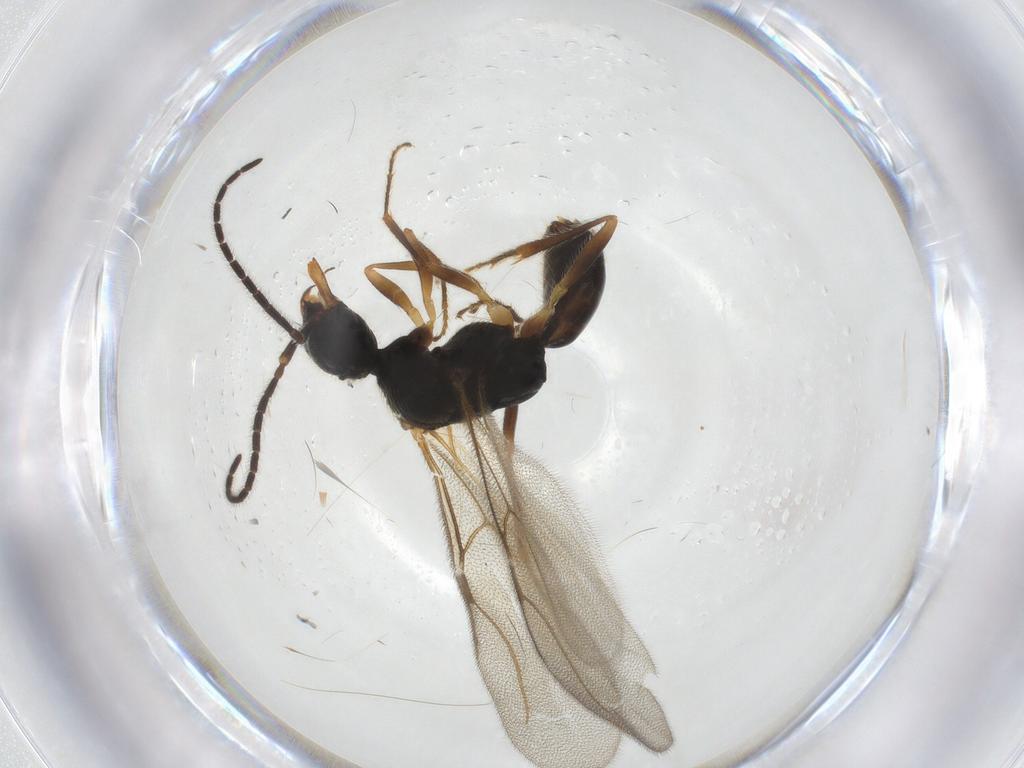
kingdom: Animalia
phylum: Arthropoda
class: Insecta
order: Hymenoptera
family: Bethylidae
